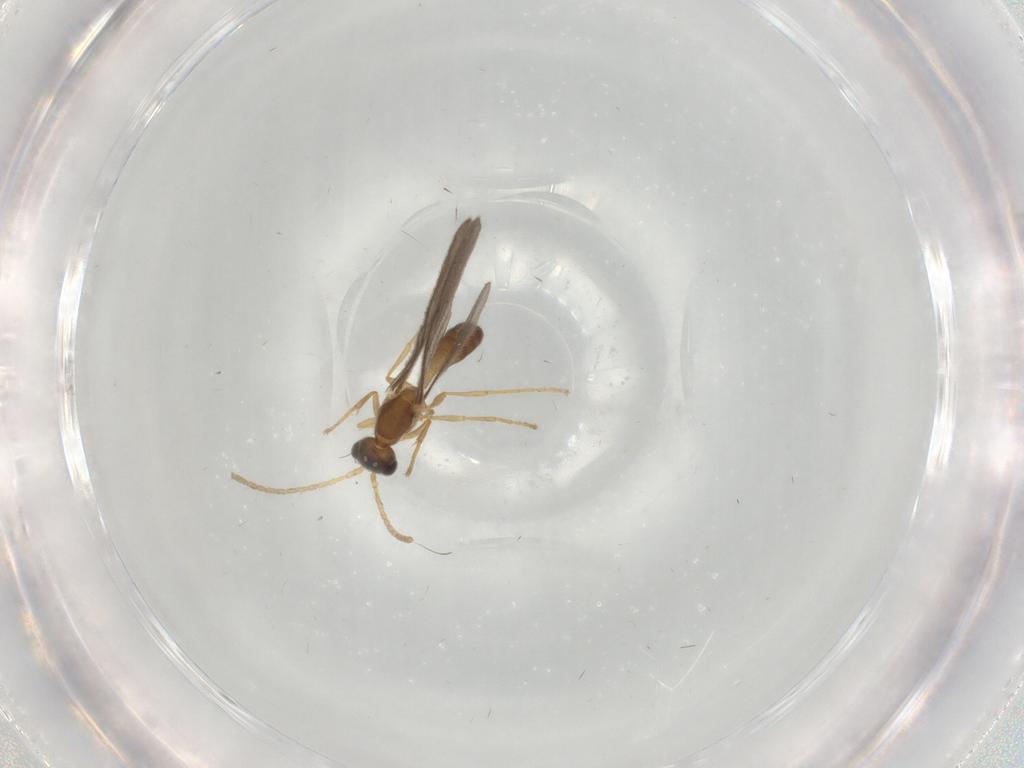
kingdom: Animalia
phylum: Arthropoda
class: Insecta
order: Hymenoptera
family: Formicidae
